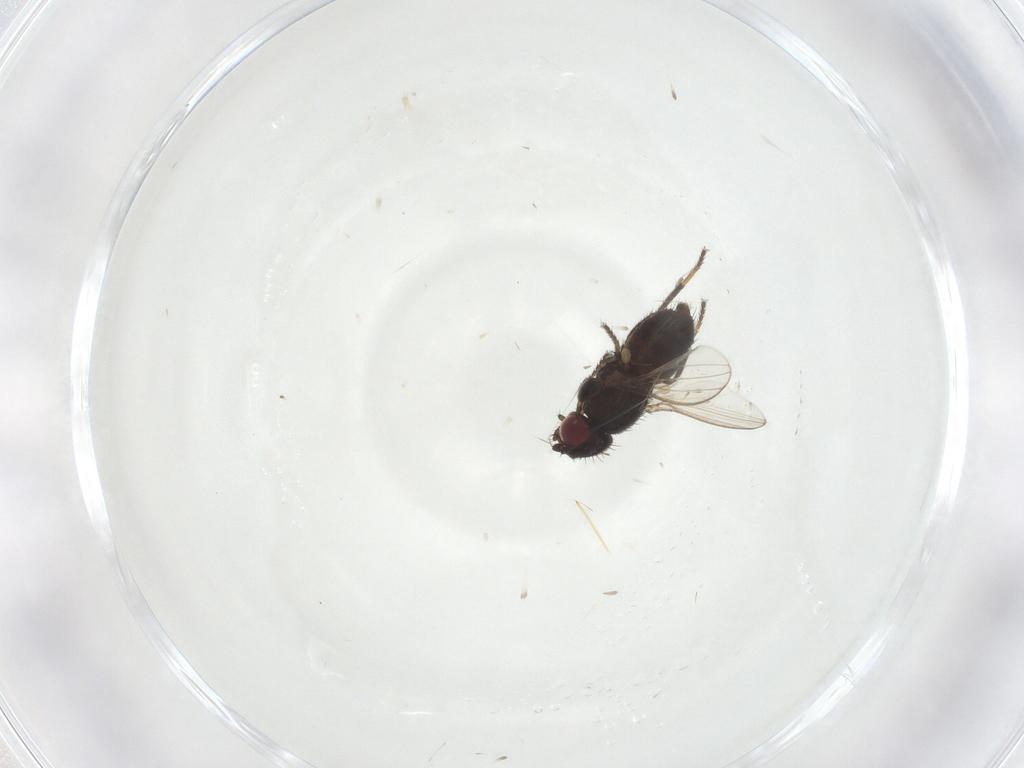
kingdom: Animalia
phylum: Arthropoda
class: Insecta
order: Diptera
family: Milichiidae
